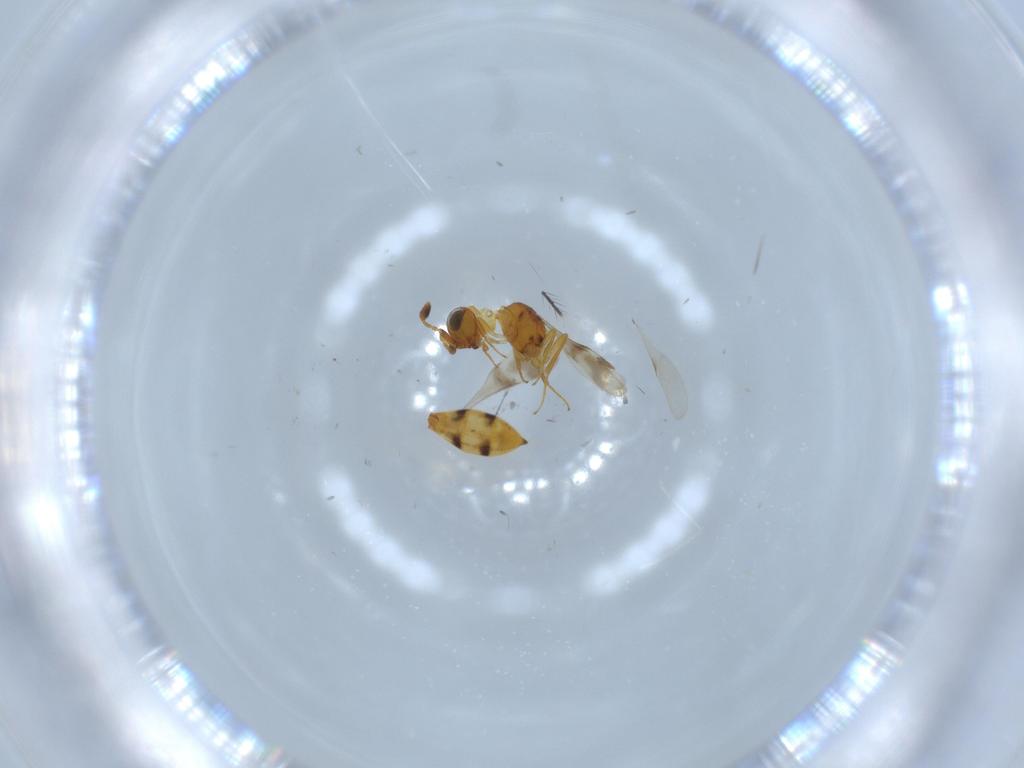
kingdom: Animalia
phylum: Arthropoda
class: Insecta
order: Hymenoptera
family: Scelionidae
